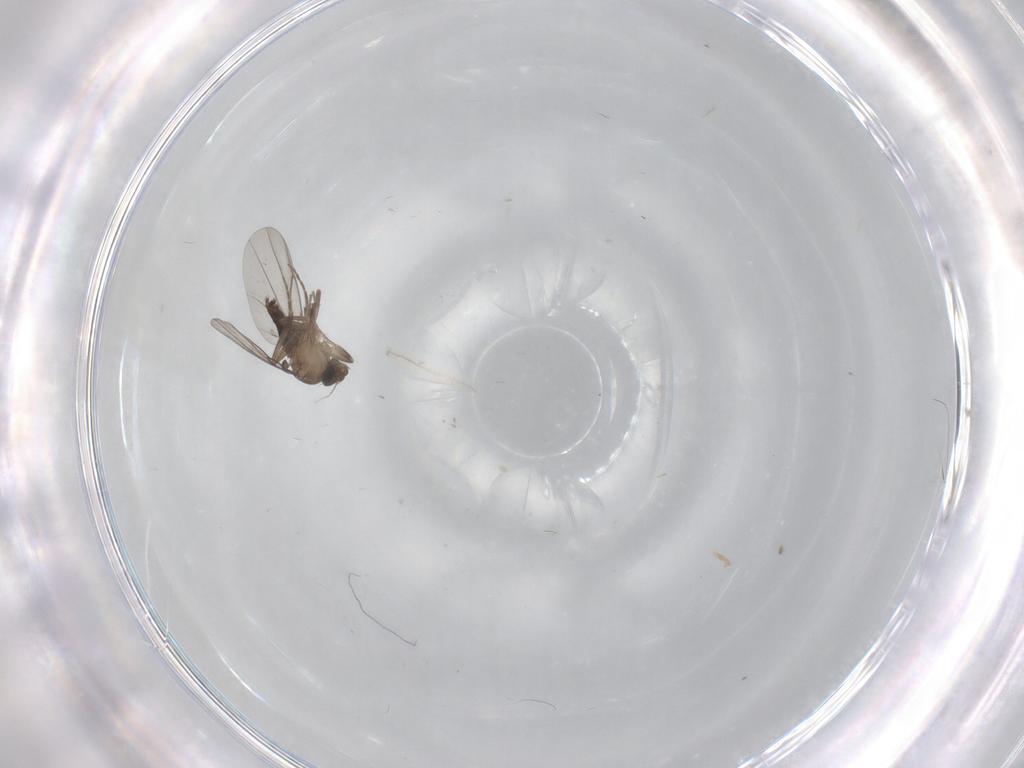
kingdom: Animalia
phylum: Arthropoda
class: Insecta
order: Diptera
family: Phoridae
